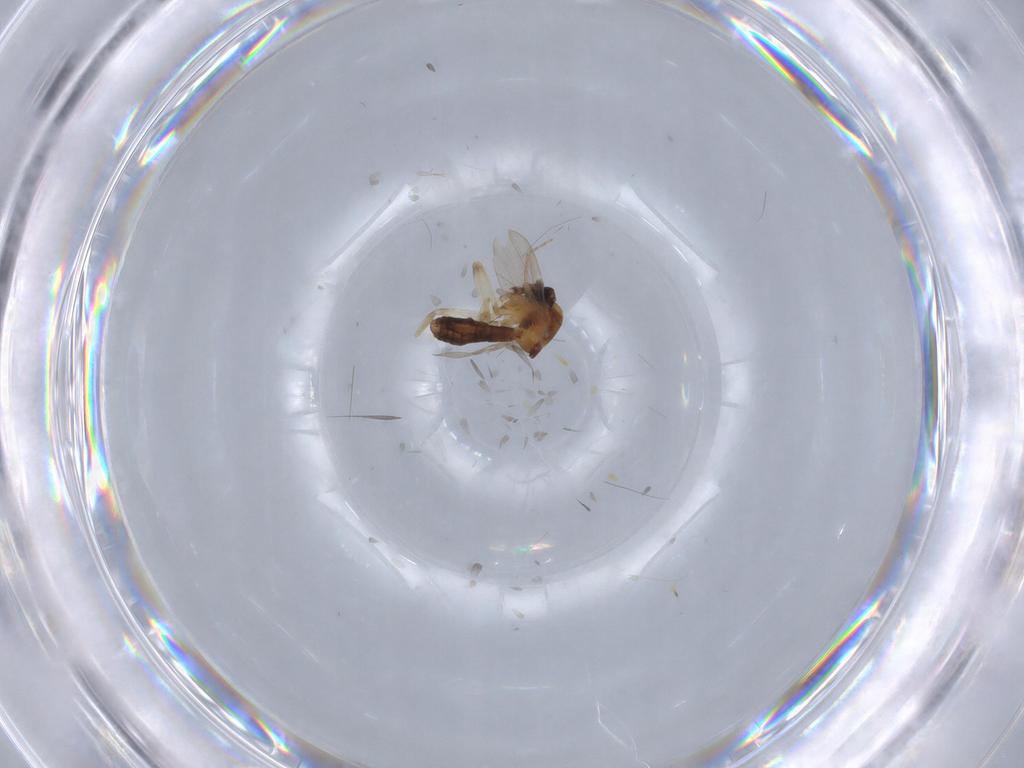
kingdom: Animalia
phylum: Arthropoda
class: Insecta
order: Diptera
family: Ceratopogonidae
